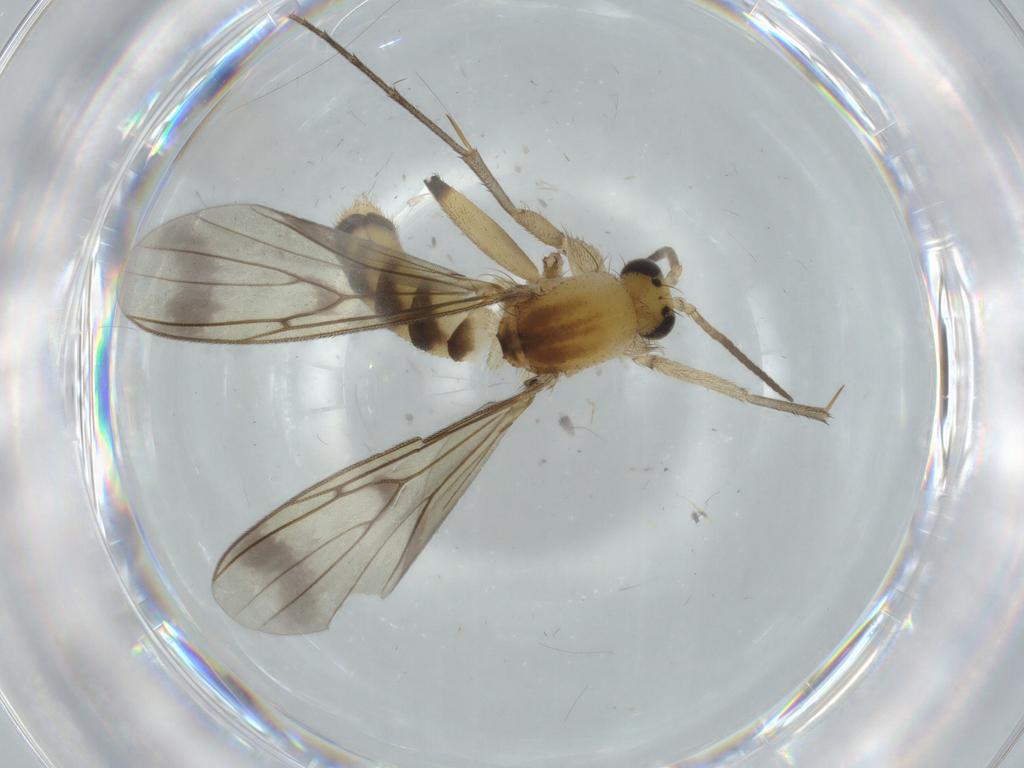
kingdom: Animalia
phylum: Arthropoda
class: Insecta
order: Diptera
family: Cecidomyiidae
